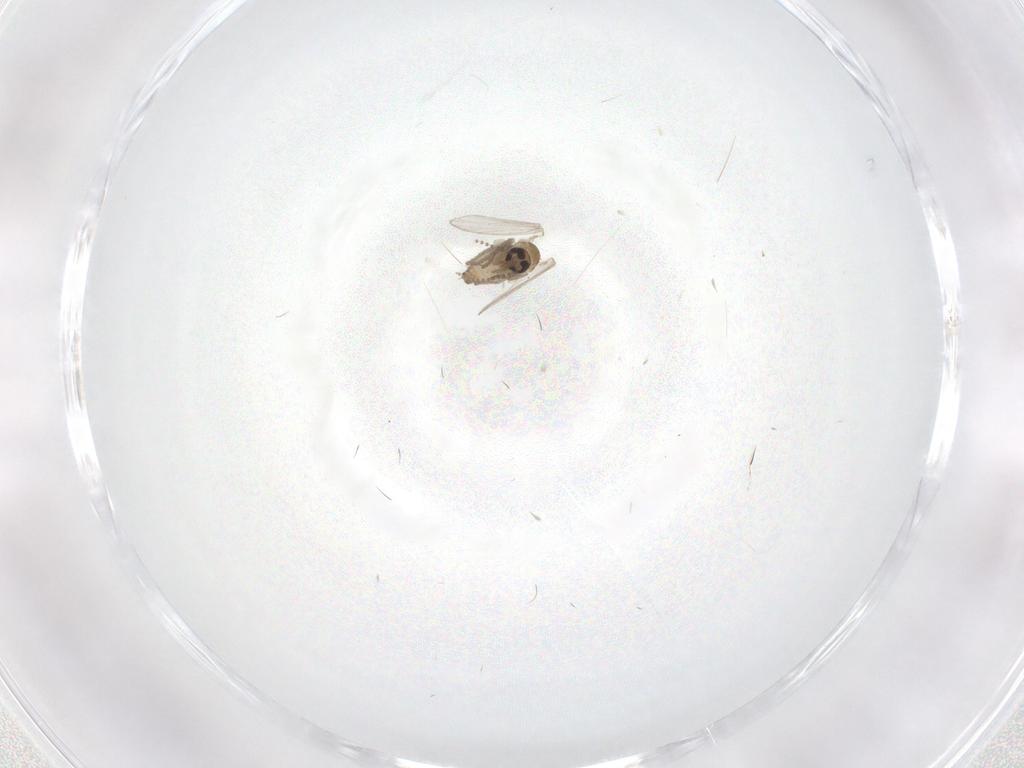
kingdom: Animalia
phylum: Arthropoda
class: Insecta
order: Diptera
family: Psychodidae
